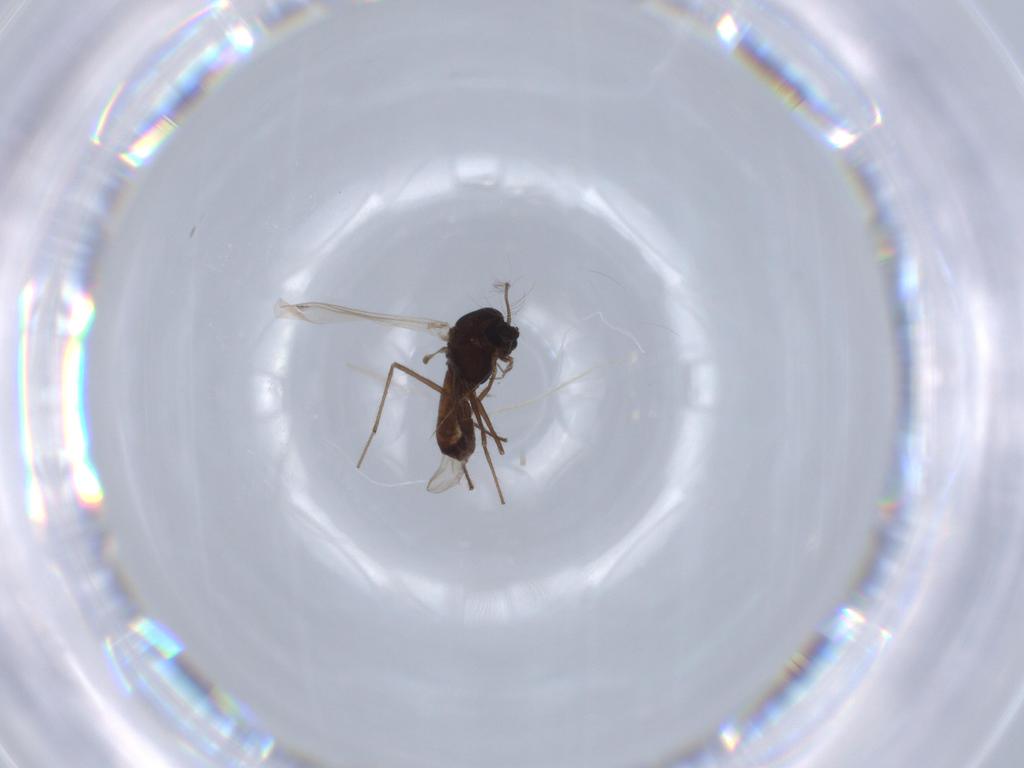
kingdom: Animalia
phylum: Arthropoda
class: Insecta
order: Diptera
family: Chironomidae
